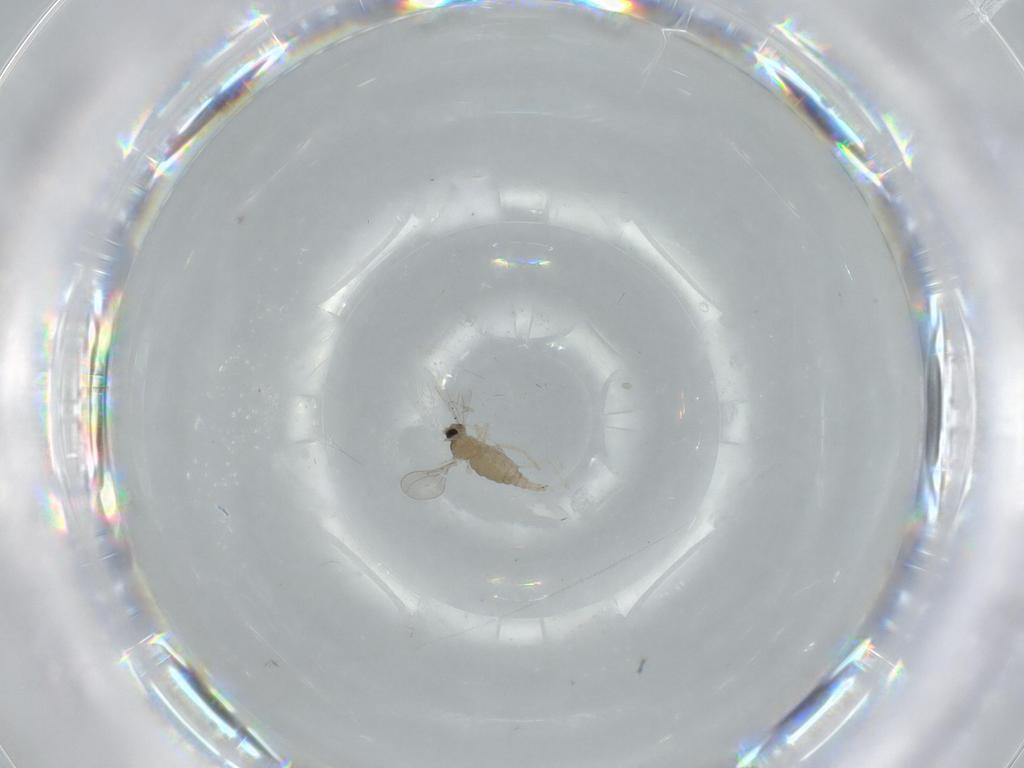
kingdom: Animalia
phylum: Arthropoda
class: Insecta
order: Diptera
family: Cecidomyiidae
